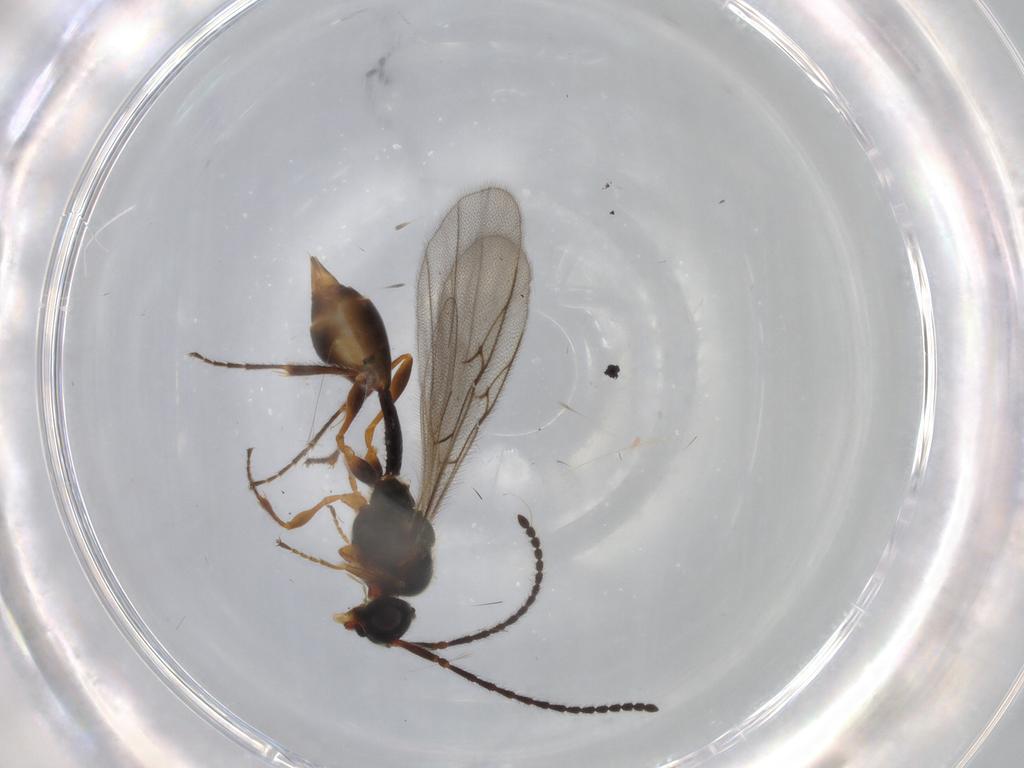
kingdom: Animalia
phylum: Arthropoda
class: Insecta
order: Hymenoptera
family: Diapriidae
